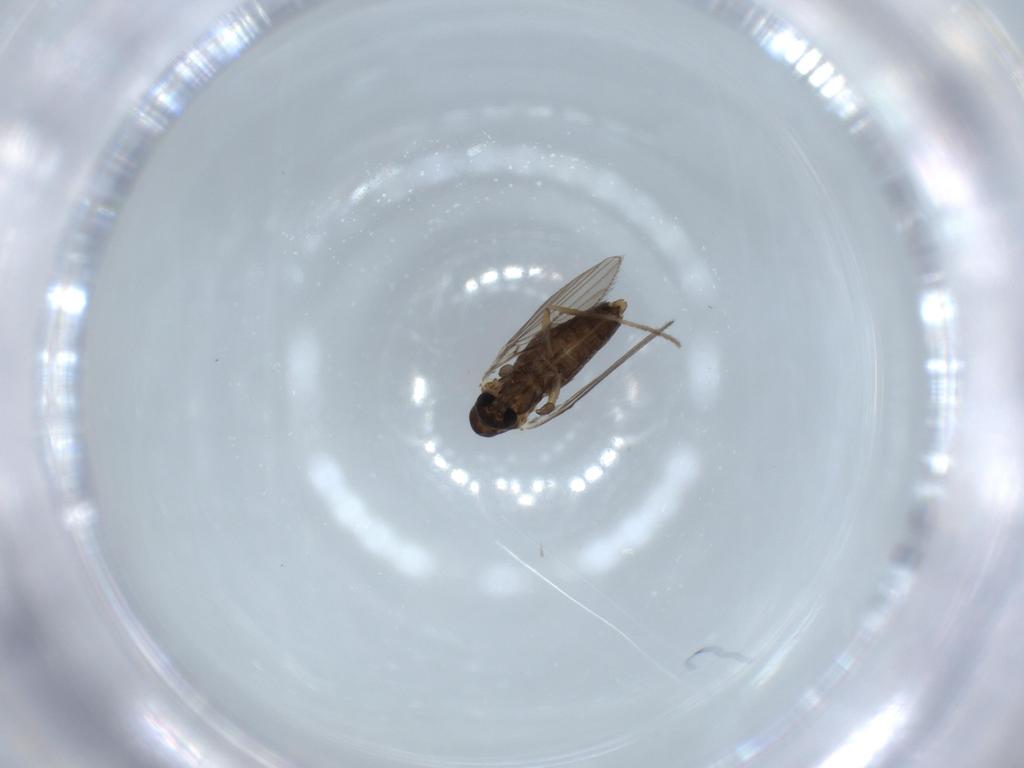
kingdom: Animalia
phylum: Arthropoda
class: Insecta
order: Diptera
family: Psychodidae
